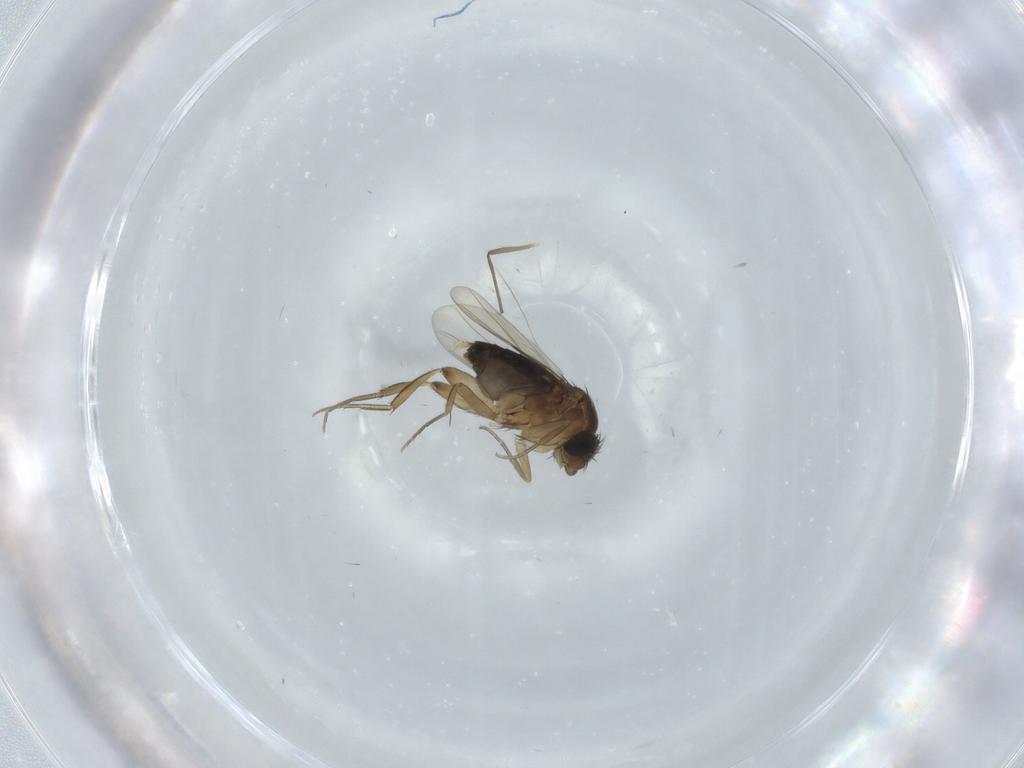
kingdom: Animalia
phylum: Arthropoda
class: Insecta
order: Diptera
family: Phoridae
